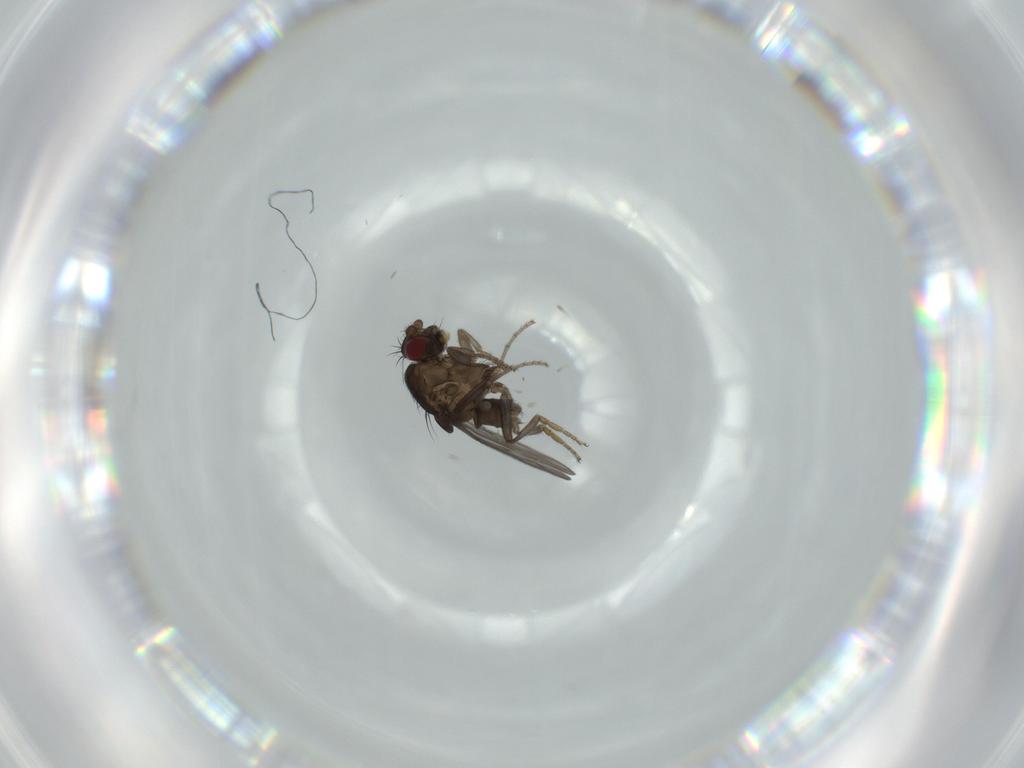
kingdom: Animalia
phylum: Arthropoda
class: Insecta
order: Diptera
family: Sphaeroceridae
